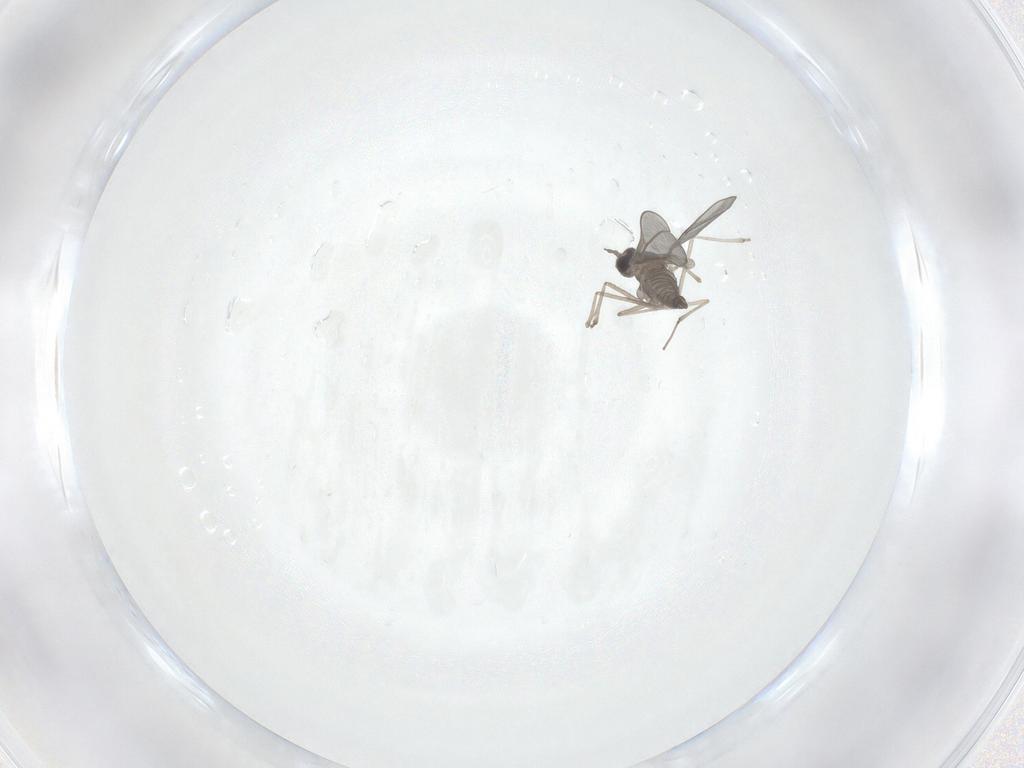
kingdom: Animalia
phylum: Arthropoda
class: Insecta
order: Diptera
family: Cecidomyiidae
